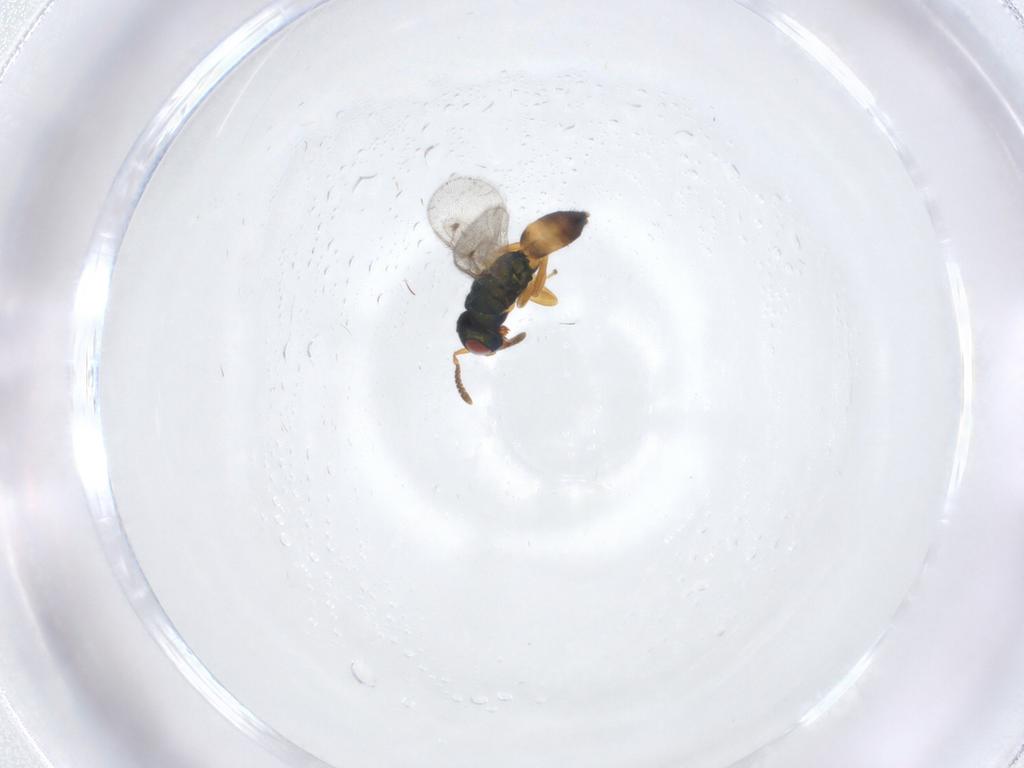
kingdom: Animalia
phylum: Arthropoda
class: Insecta
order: Hymenoptera
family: Pteromalidae
